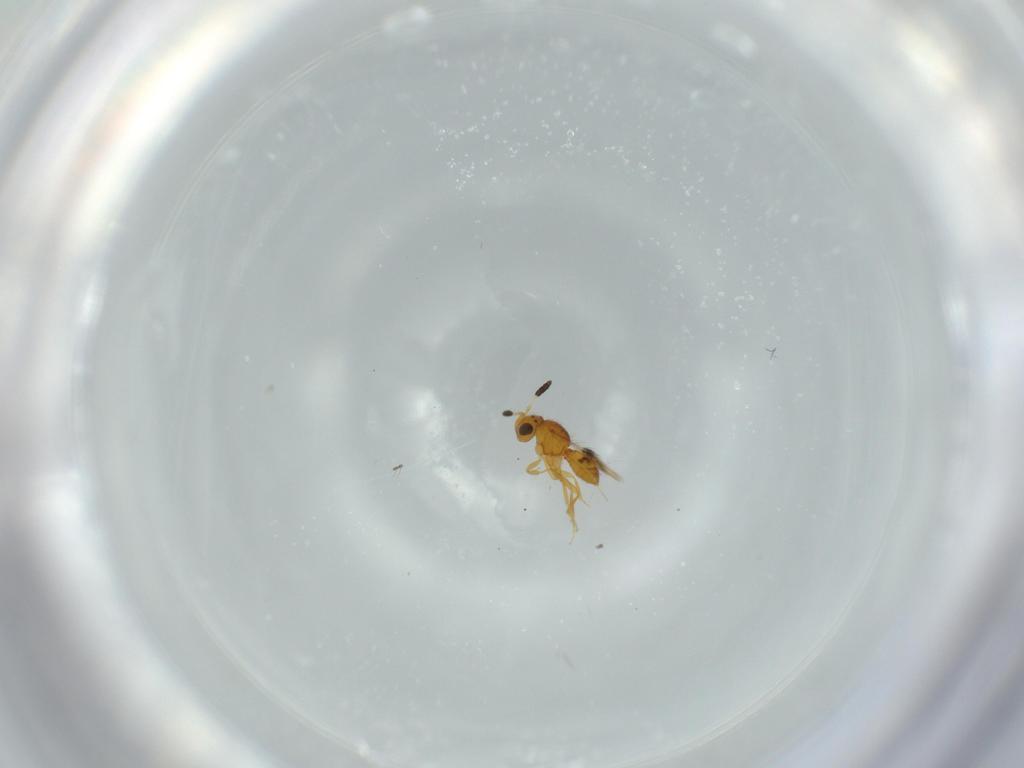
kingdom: Animalia
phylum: Arthropoda
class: Insecta
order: Hymenoptera
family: Scelionidae
